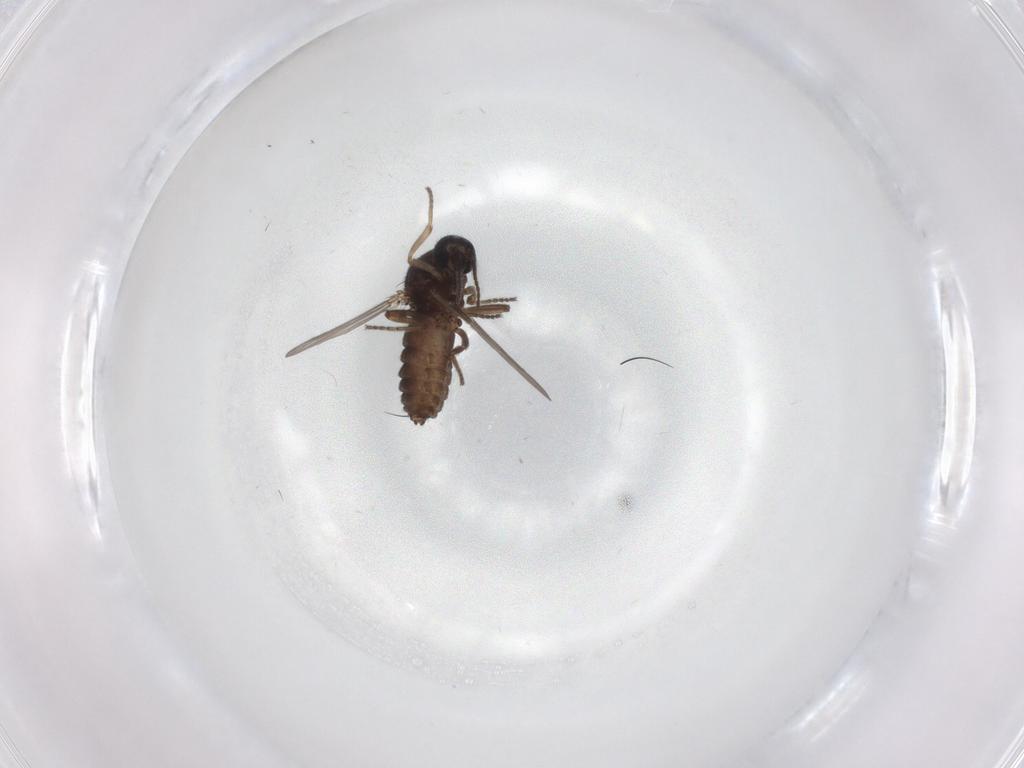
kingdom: Animalia
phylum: Arthropoda
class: Insecta
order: Diptera
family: Ceratopogonidae
